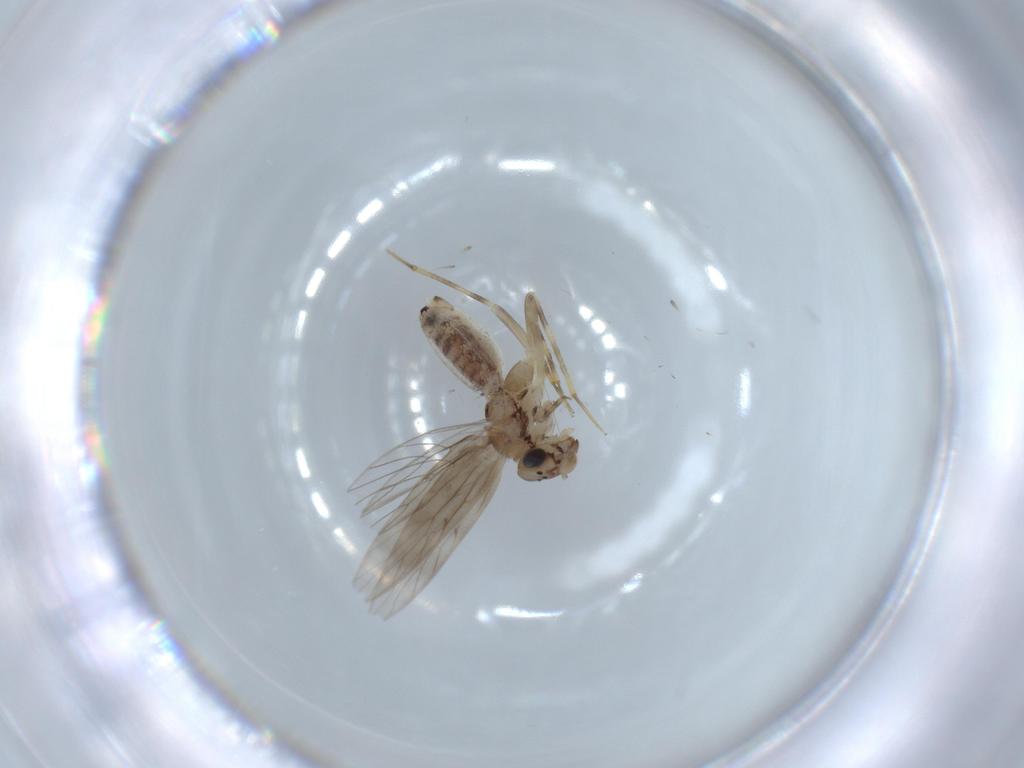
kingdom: Animalia
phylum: Arthropoda
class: Insecta
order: Psocodea
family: Lepidopsocidae
